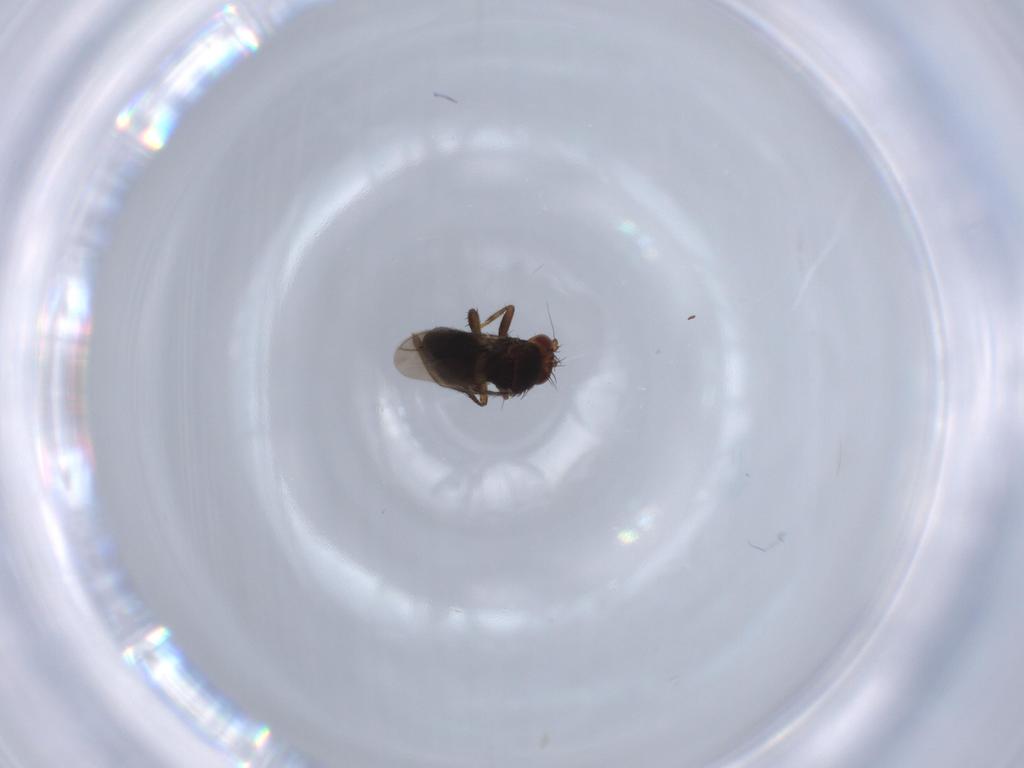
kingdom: Animalia
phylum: Arthropoda
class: Insecta
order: Diptera
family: Sphaeroceridae
